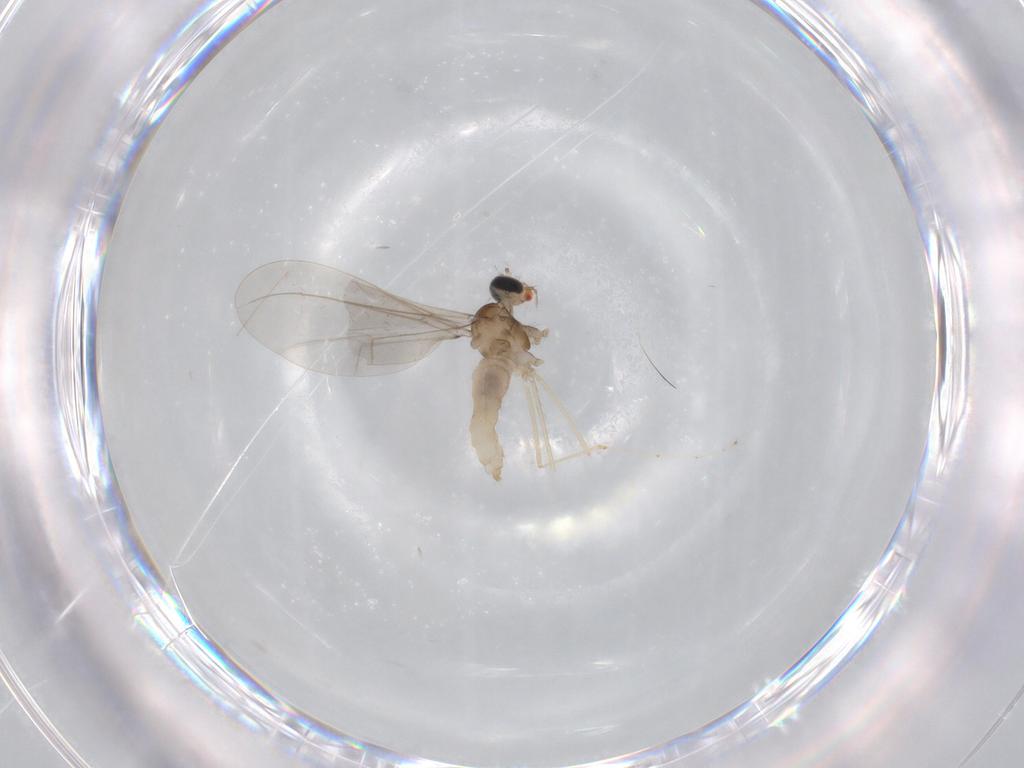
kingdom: Animalia
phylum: Arthropoda
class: Insecta
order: Diptera
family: Cecidomyiidae
